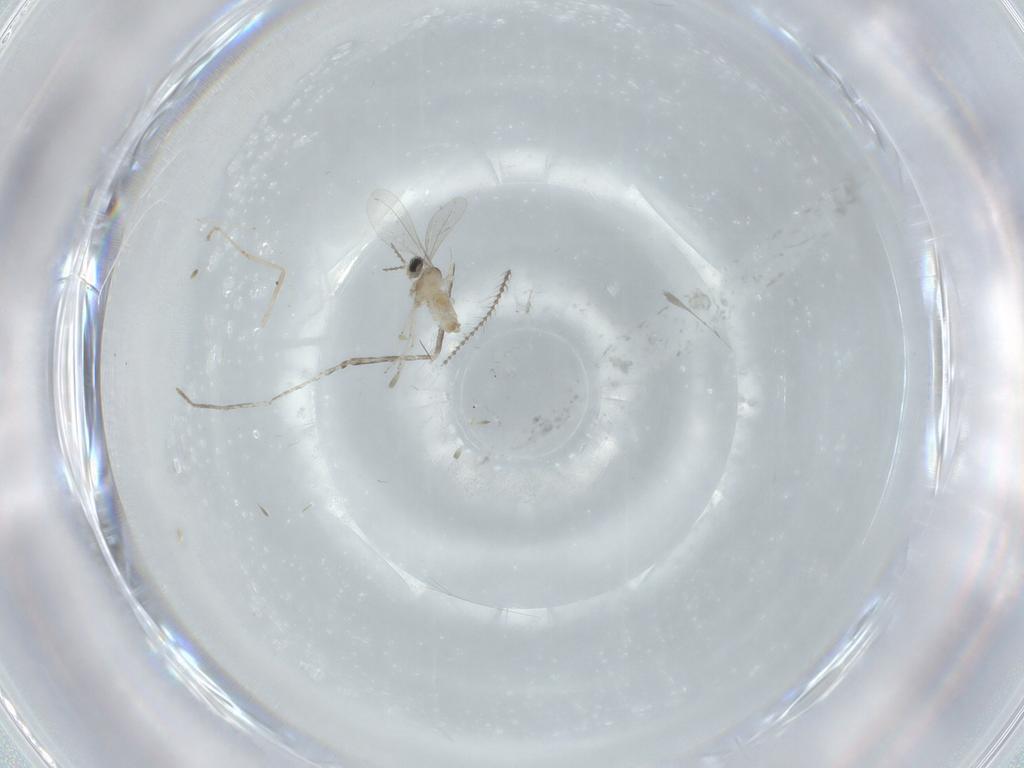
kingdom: Animalia
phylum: Arthropoda
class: Insecta
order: Diptera
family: Cecidomyiidae
